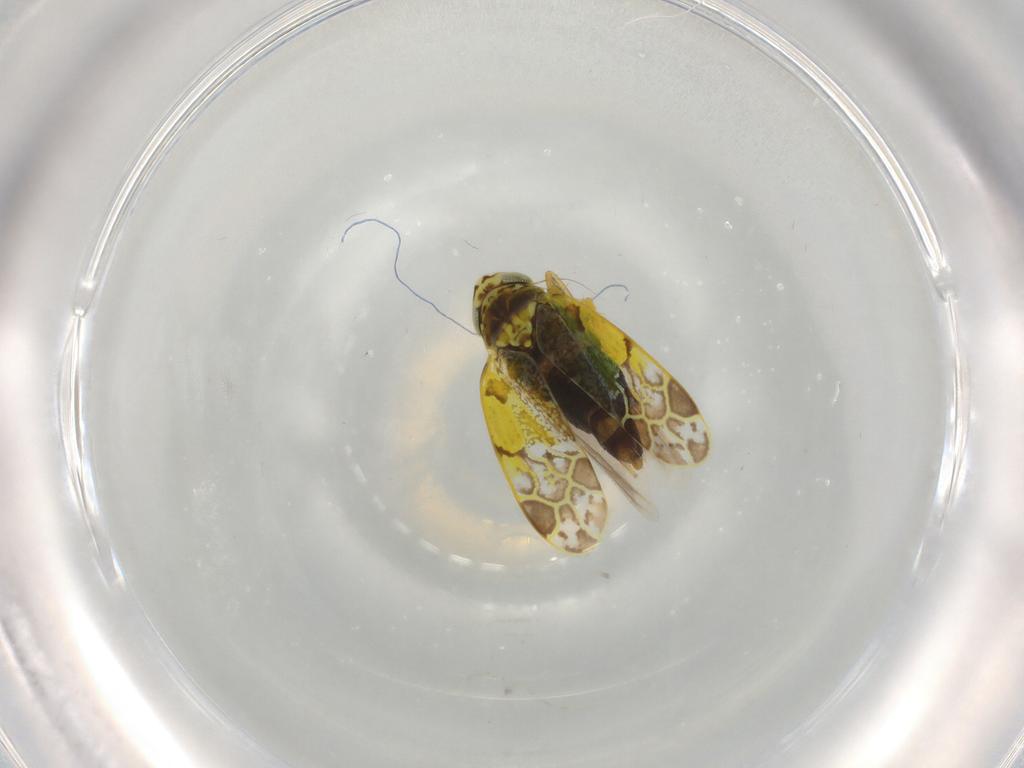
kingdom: Animalia
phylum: Arthropoda
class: Insecta
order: Hemiptera
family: Cicadellidae
